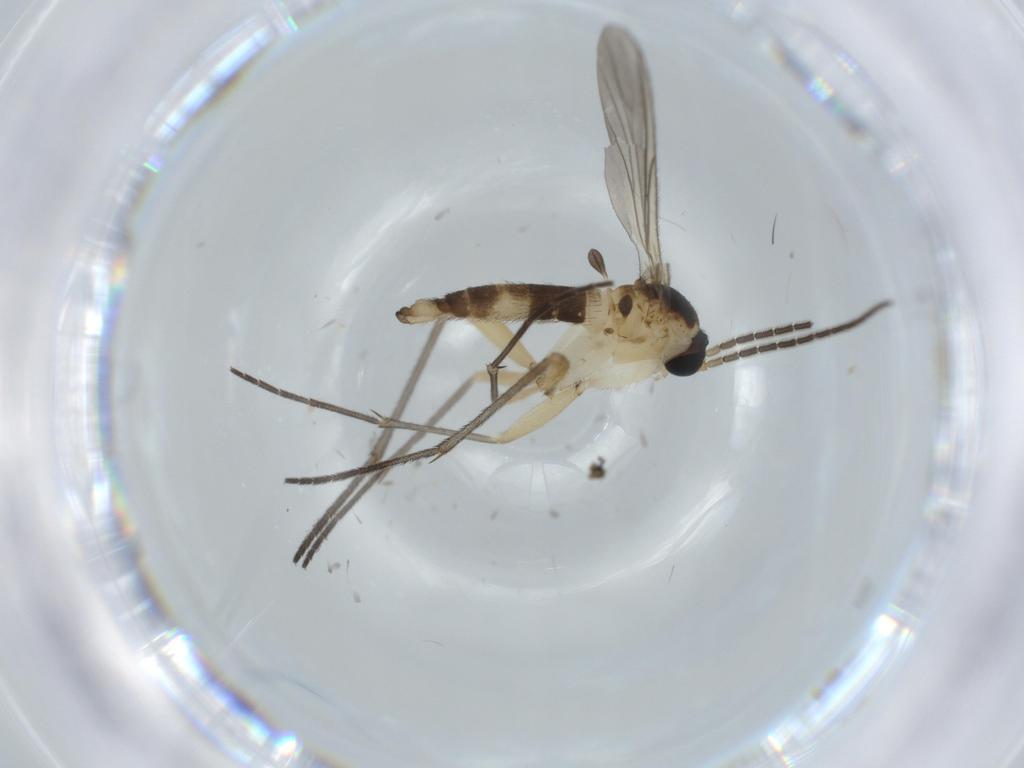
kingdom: Animalia
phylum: Arthropoda
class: Insecta
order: Diptera
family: Sciaridae
